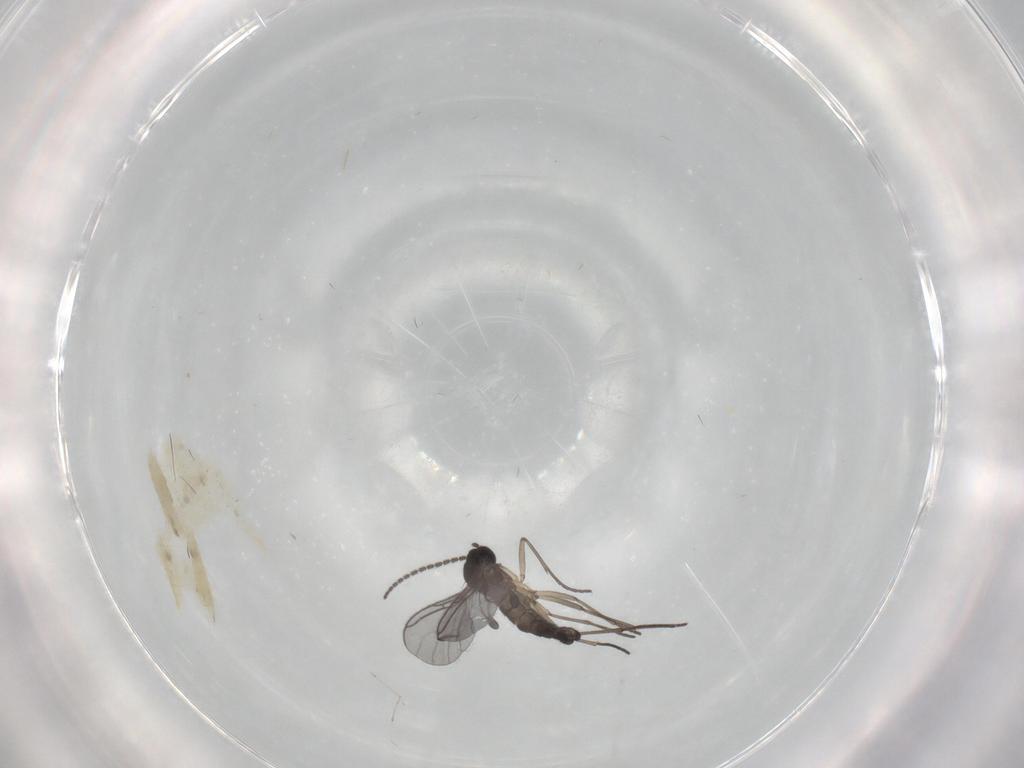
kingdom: Animalia
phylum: Arthropoda
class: Insecta
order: Diptera
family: Sciaridae
